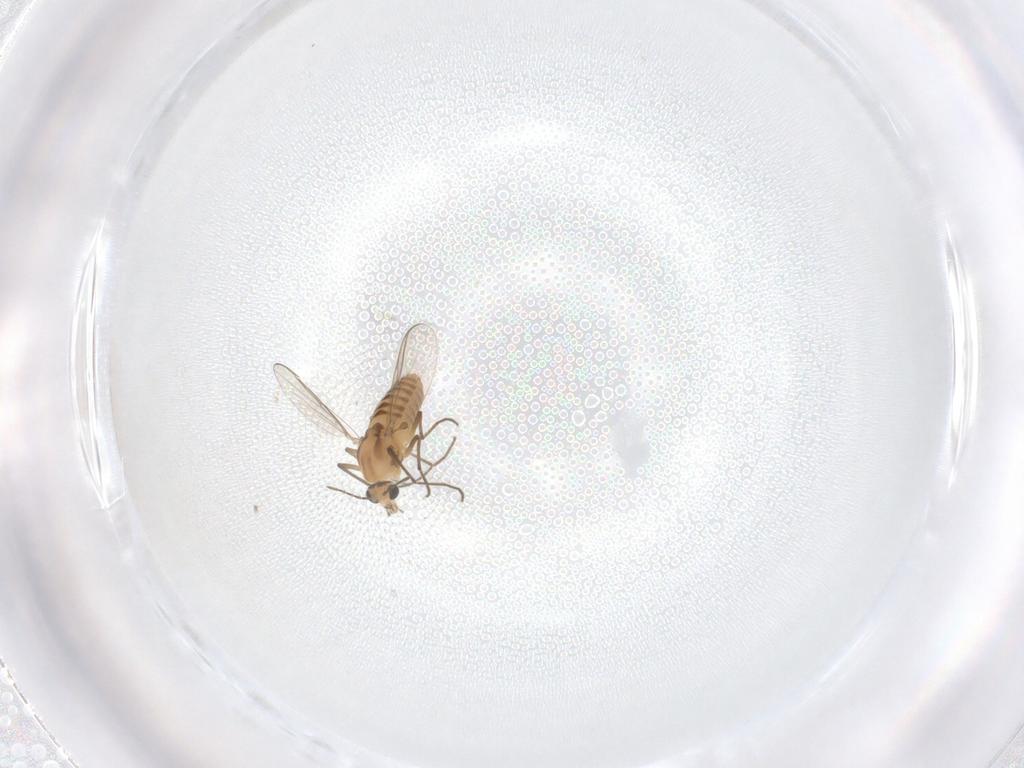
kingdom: Animalia
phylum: Arthropoda
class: Insecta
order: Diptera
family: Chironomidae
